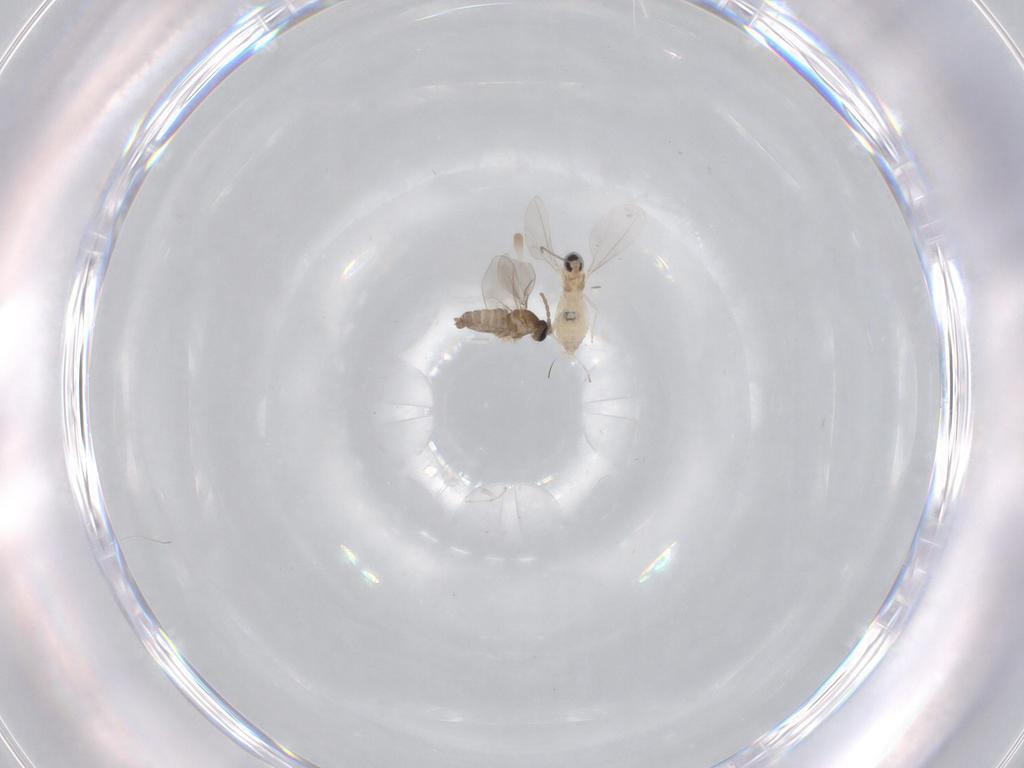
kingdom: Animalia
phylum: Arthropoda
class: Insecta
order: Diptera
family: Cecidomyiidae
